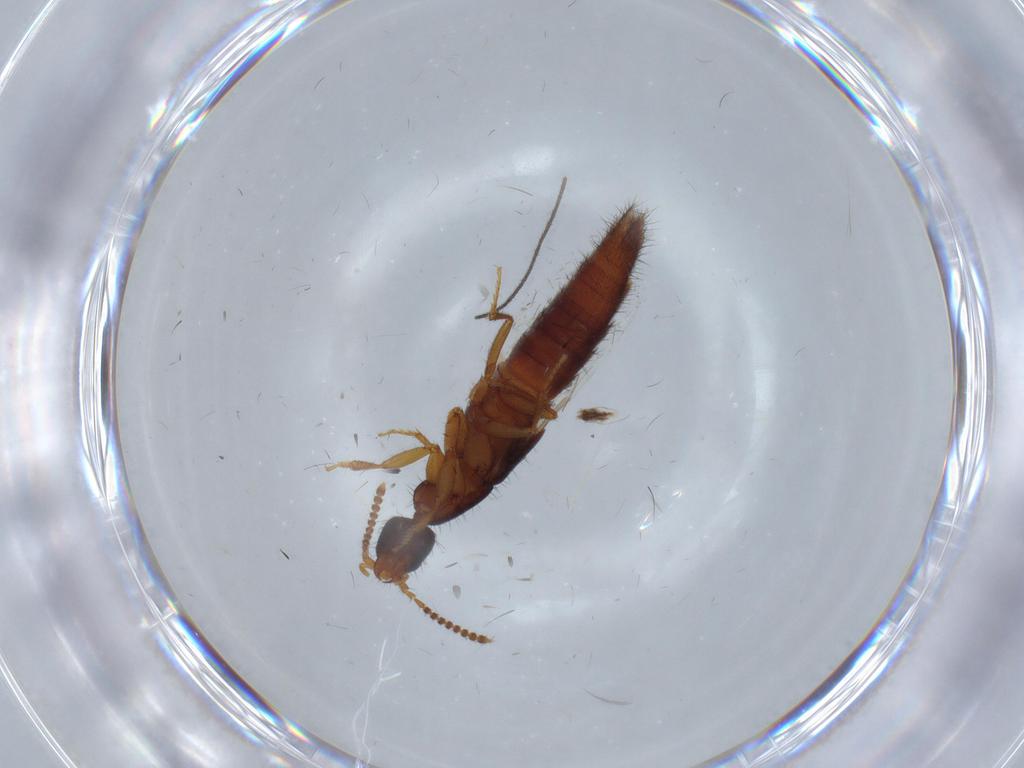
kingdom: Animalia
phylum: Arthropoda
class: Insecta
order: Coleoptera
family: Staphylinidae
